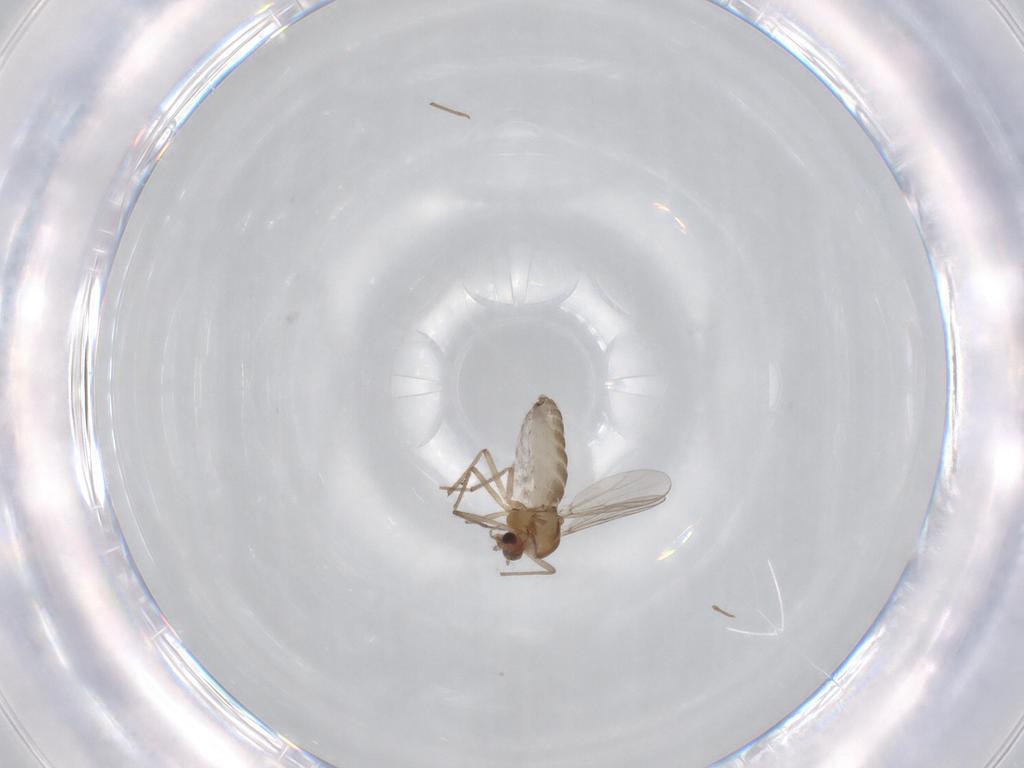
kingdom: Animalia
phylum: Arthropoda
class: Insecta
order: Diptera
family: Chironomidae
